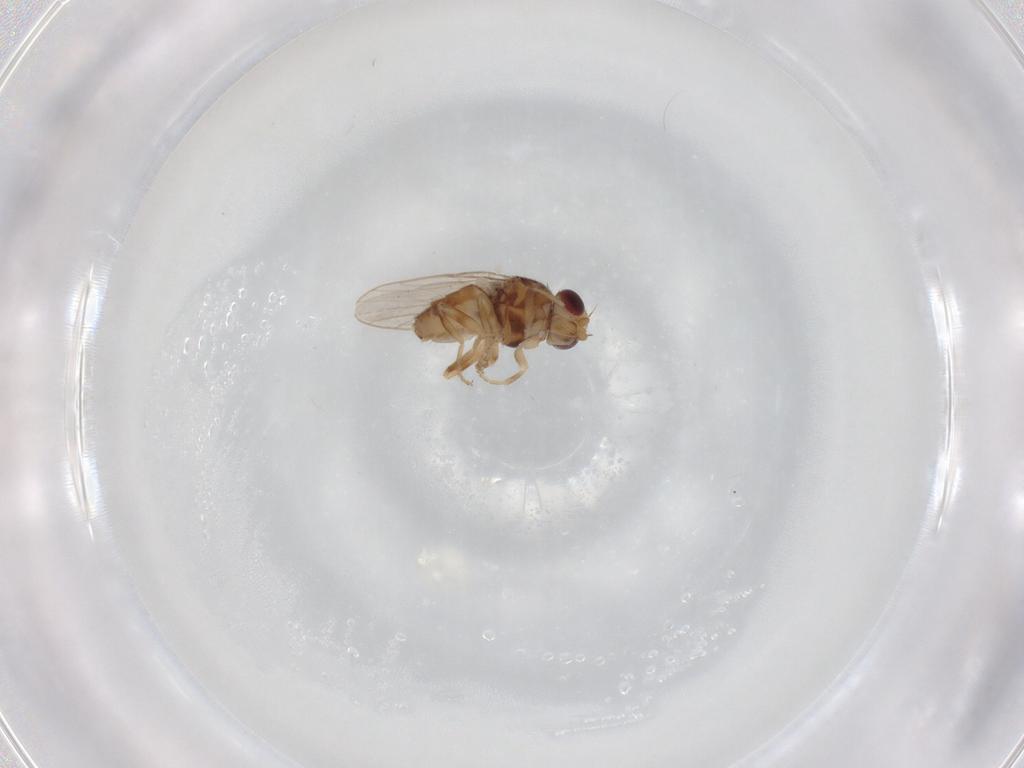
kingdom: Animalia
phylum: Arthropoda
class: Insecta
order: Diptera
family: Chloropidae
